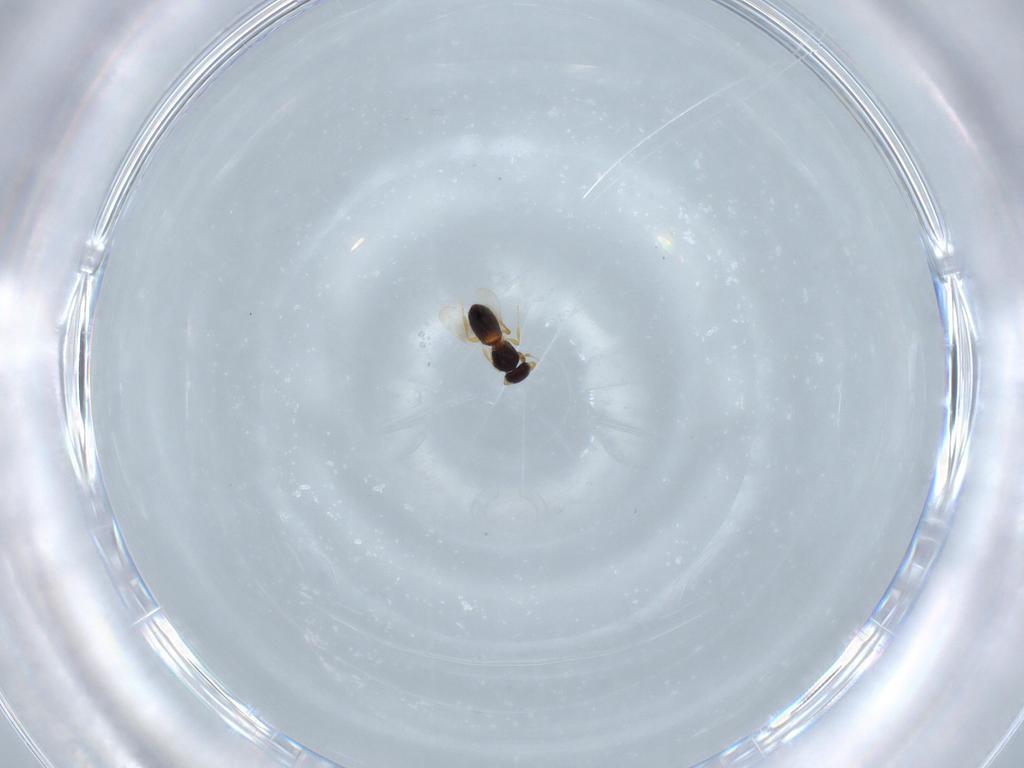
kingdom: Animalia
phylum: Arthropoda
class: Insecta
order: Hymenoptera
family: Platygastridae
